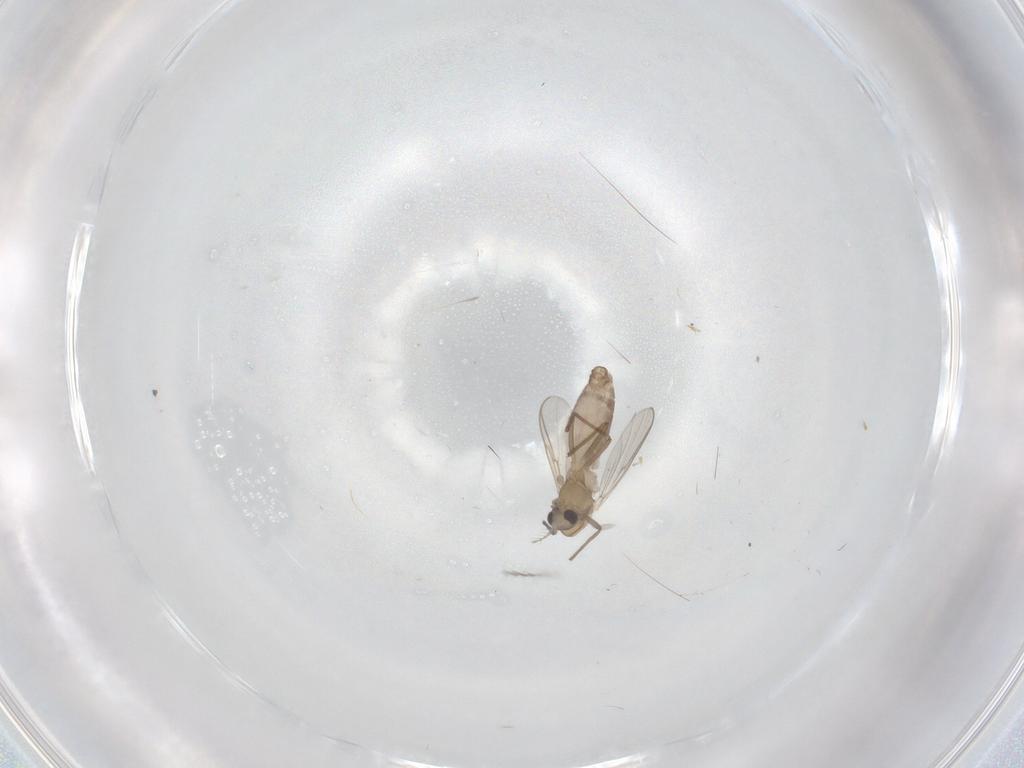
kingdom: Animalia
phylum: Arthropoda
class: Insecta
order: Diptera
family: Chironomidae
